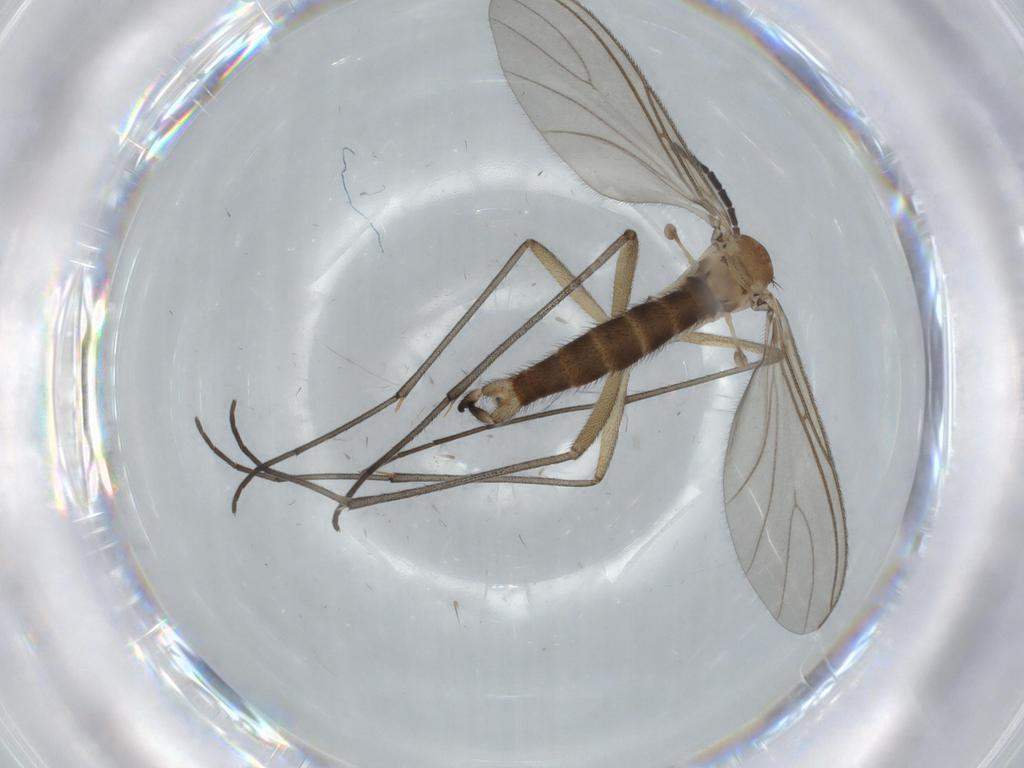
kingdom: Animalia
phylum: Arthropoda
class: Insecta
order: Diptera
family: Sciaridae
